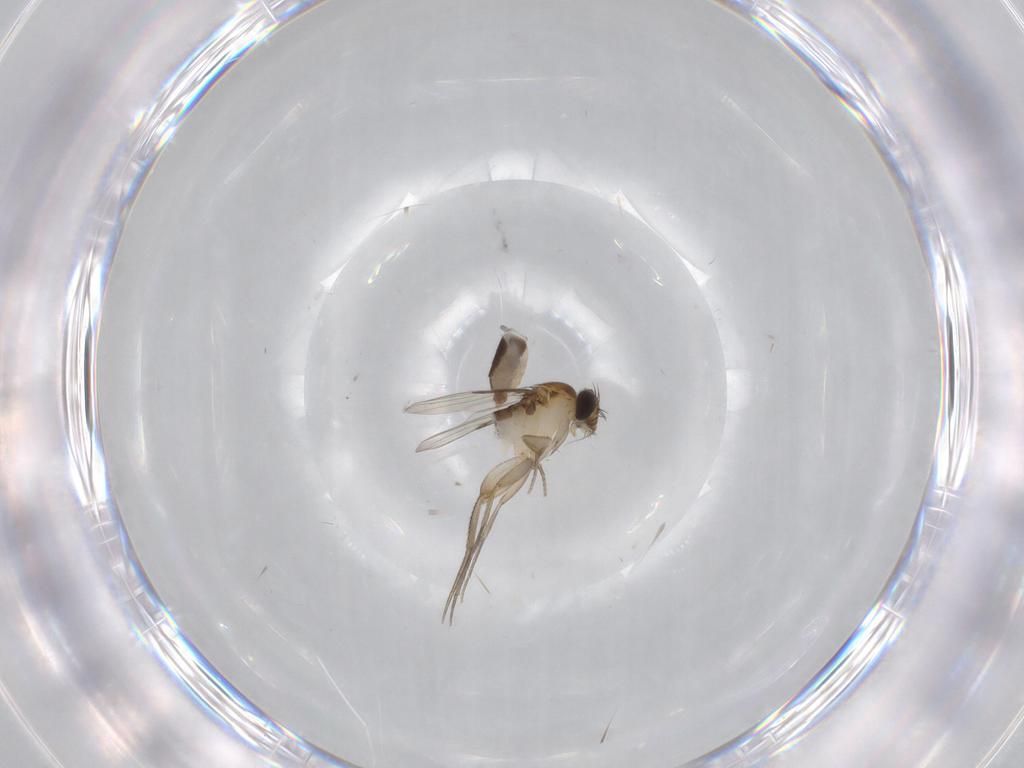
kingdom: Animalia
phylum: Arthropoda
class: Insecta
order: Diptera
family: Phoridae
